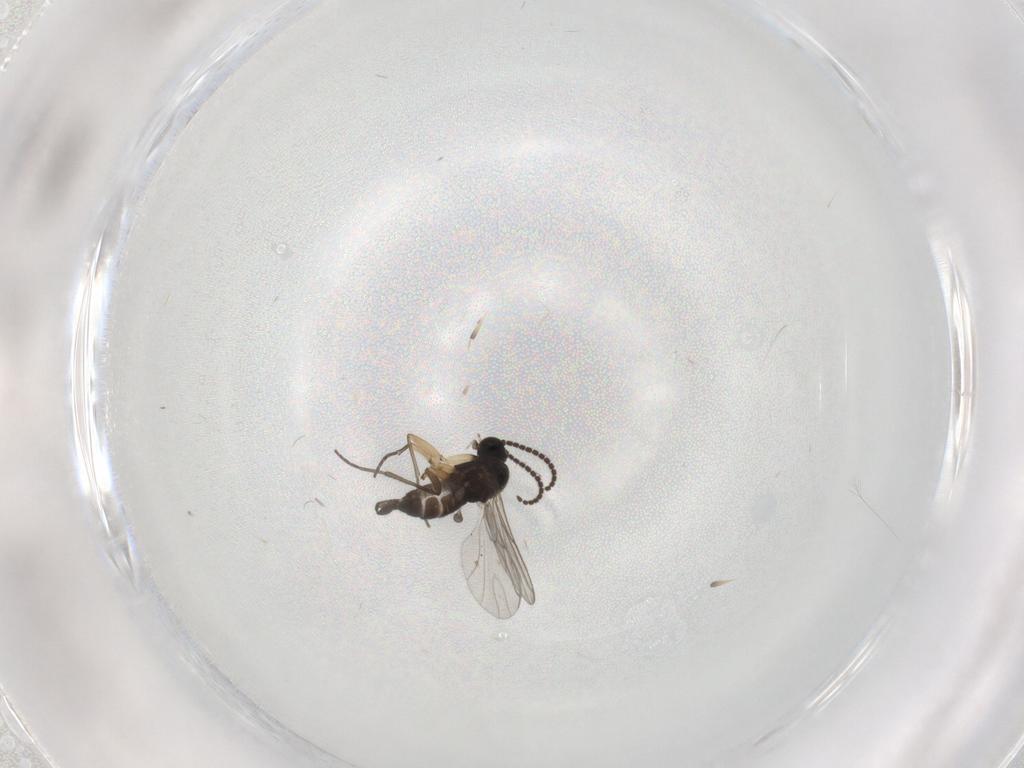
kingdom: Animalia
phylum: Arthropoda
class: Insecta
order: Diptera
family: Sciaridae
